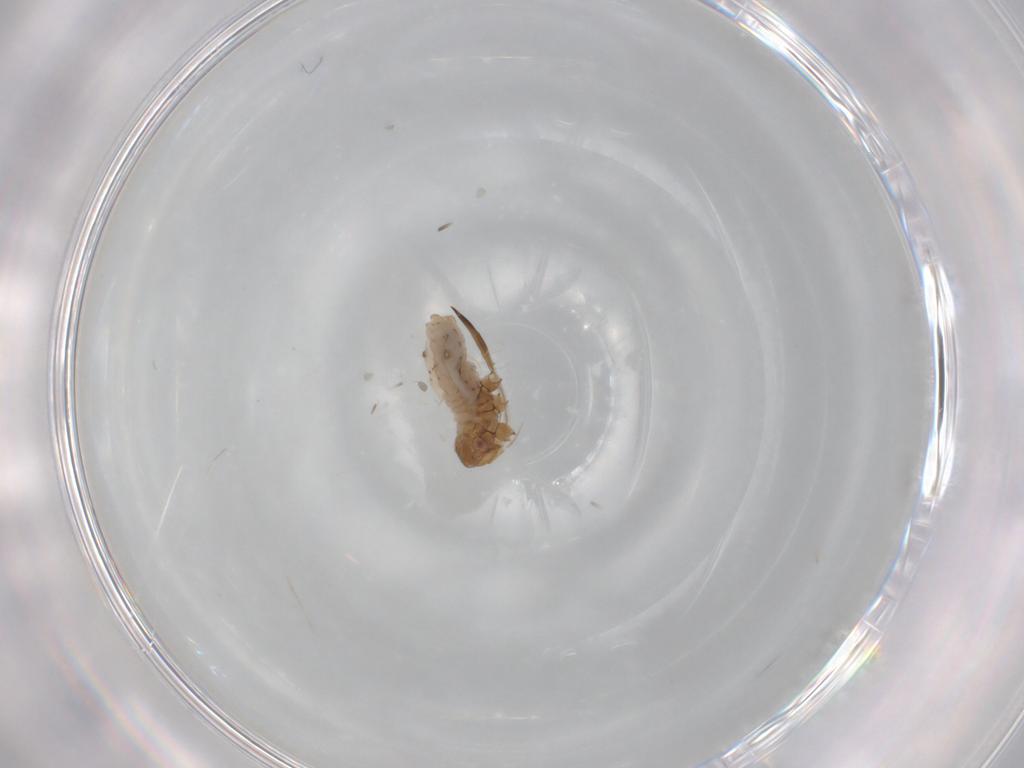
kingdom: Animalia
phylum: Arthropoda
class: Insecta
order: Hemiptera
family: Aphididae
